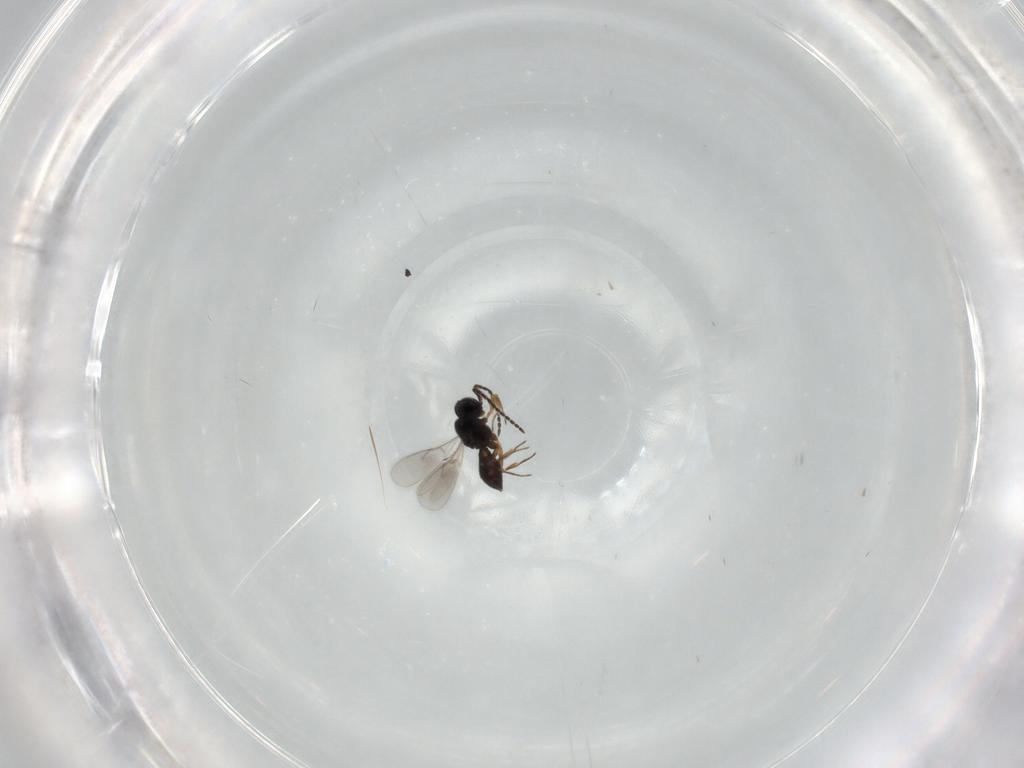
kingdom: Animalia
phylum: Arthropoda
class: Insecta
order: Hymenoptera
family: Scelionidae
